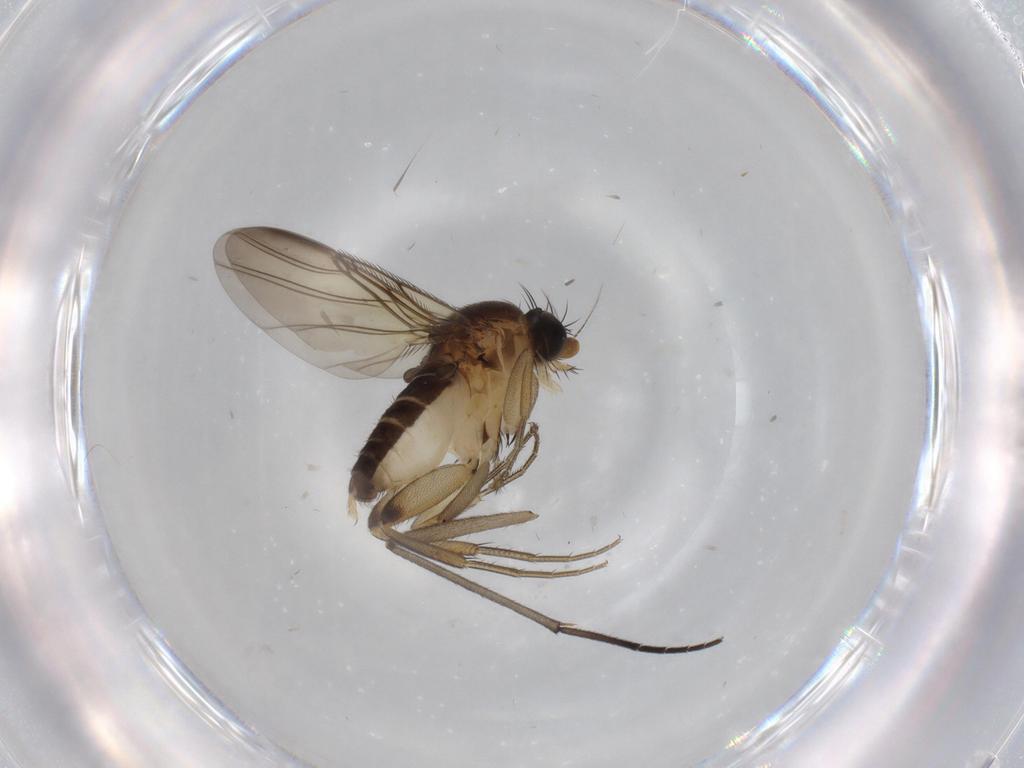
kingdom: Animalia
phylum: Arthropoda
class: Insecta
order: Diptera
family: Phoridae
